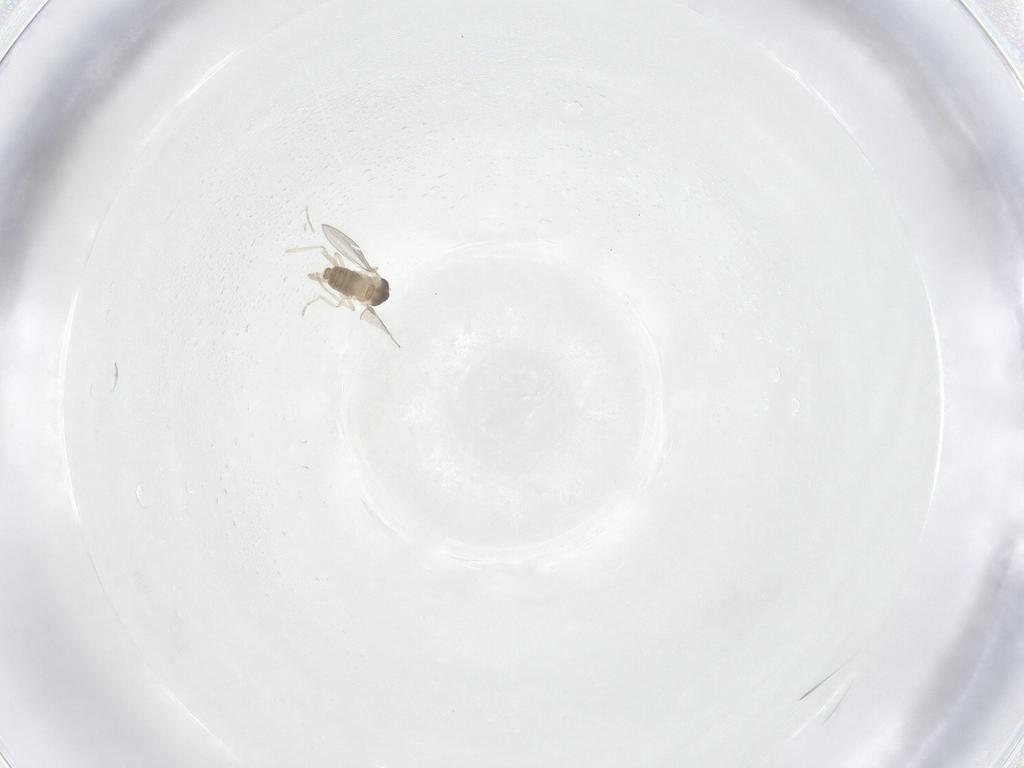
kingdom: Animalia
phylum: Arthropoda
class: Insecta
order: Diptera
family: Cecidomyiidae
